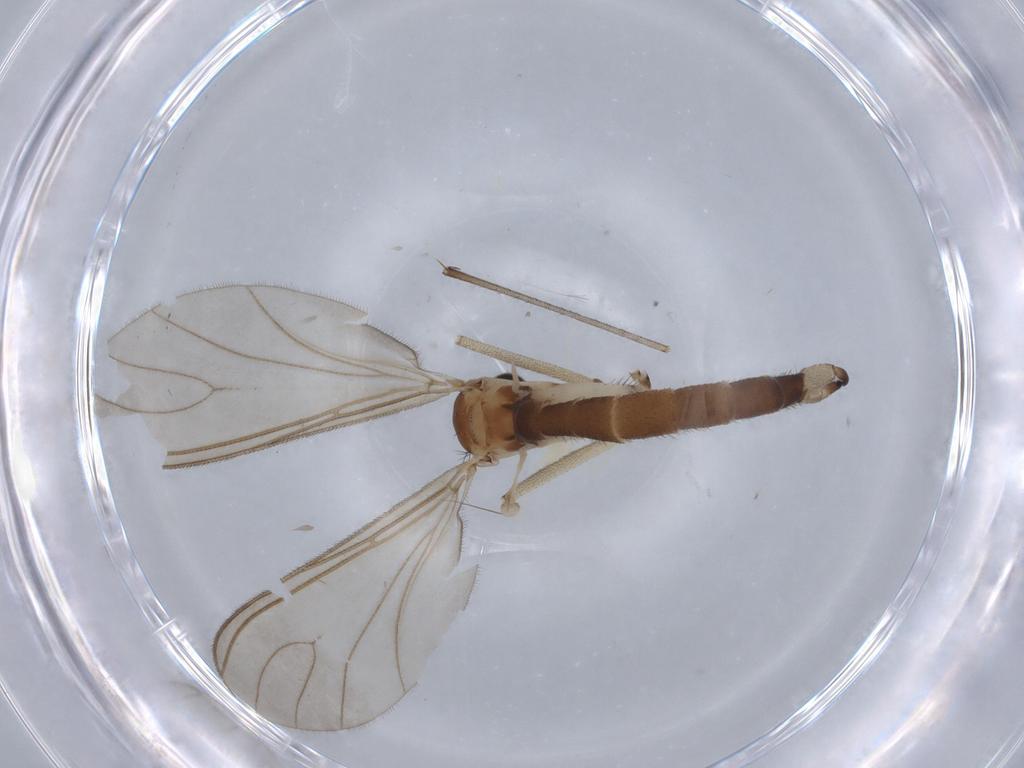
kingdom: Animalia
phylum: Arthropoda
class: Insecta
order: Diptera
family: Sciaridae
